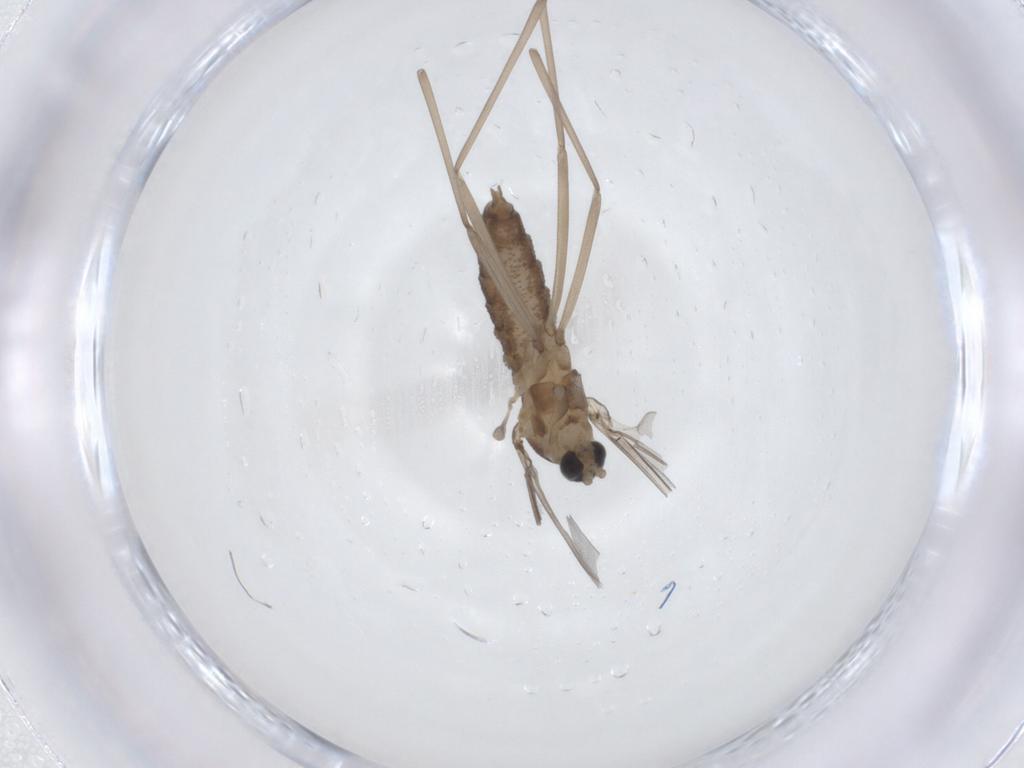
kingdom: Animalia
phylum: Arthropoda
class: Insecta
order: Diptera
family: Cecidomyiidae
